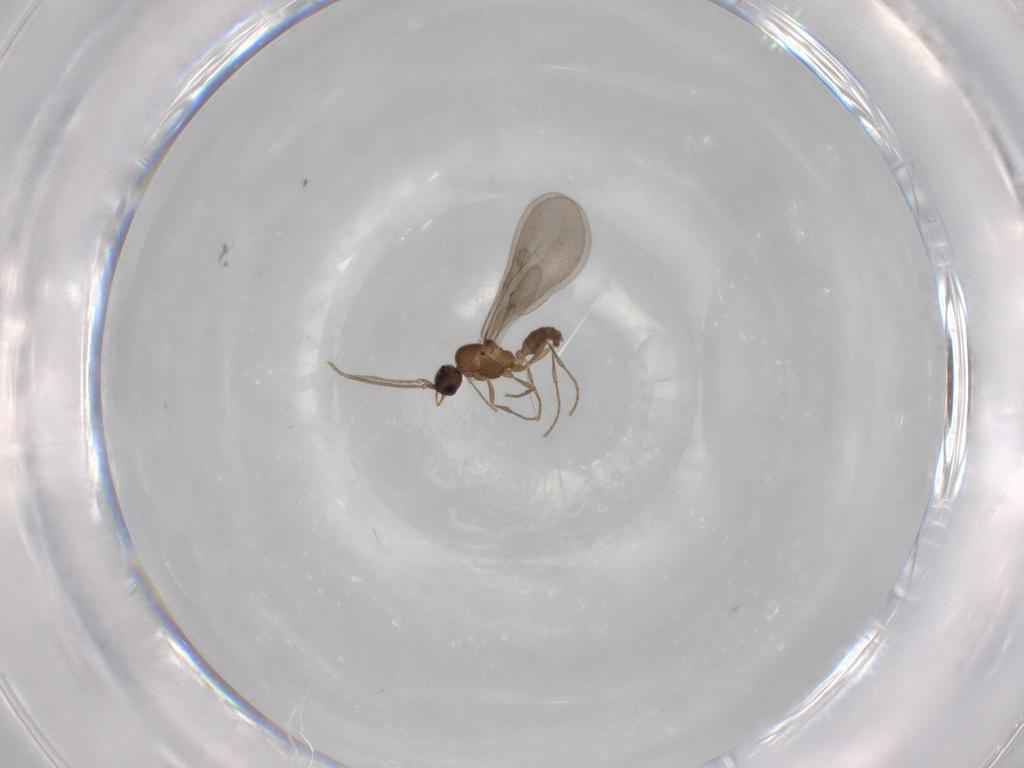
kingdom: Animalia
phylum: Arthropoda
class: Insecta
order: Hymenoptera
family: Formicidae
